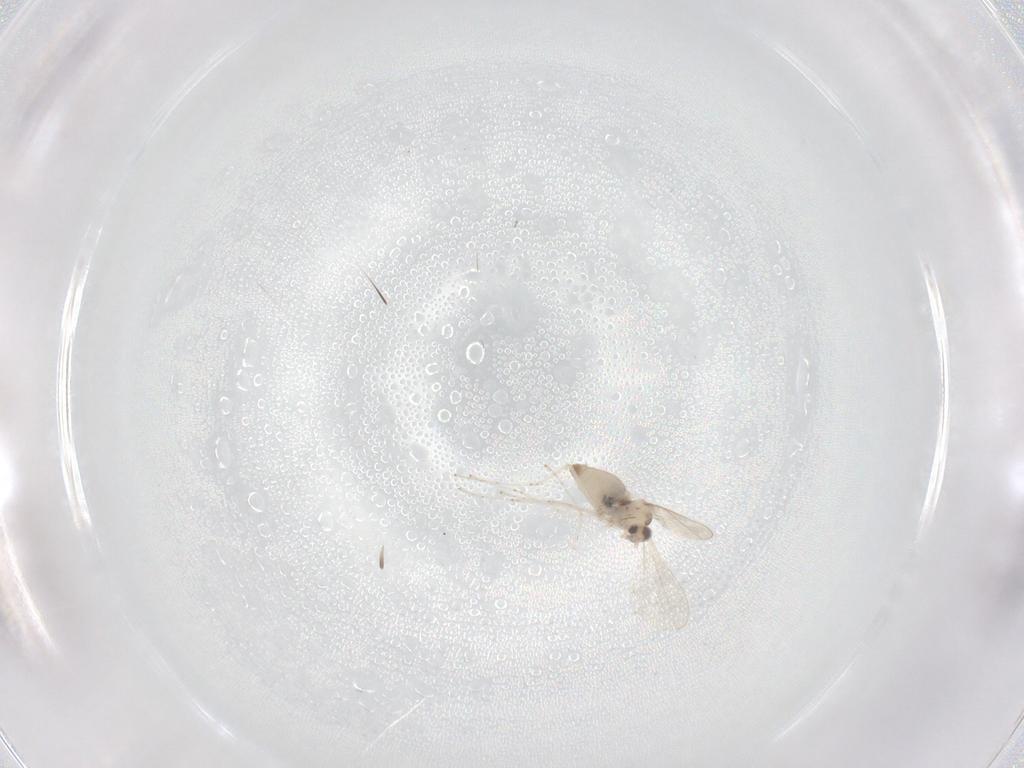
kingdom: Animalia
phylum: Arthropoda
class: Insecta
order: Diptera
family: Cecidomyiidae
